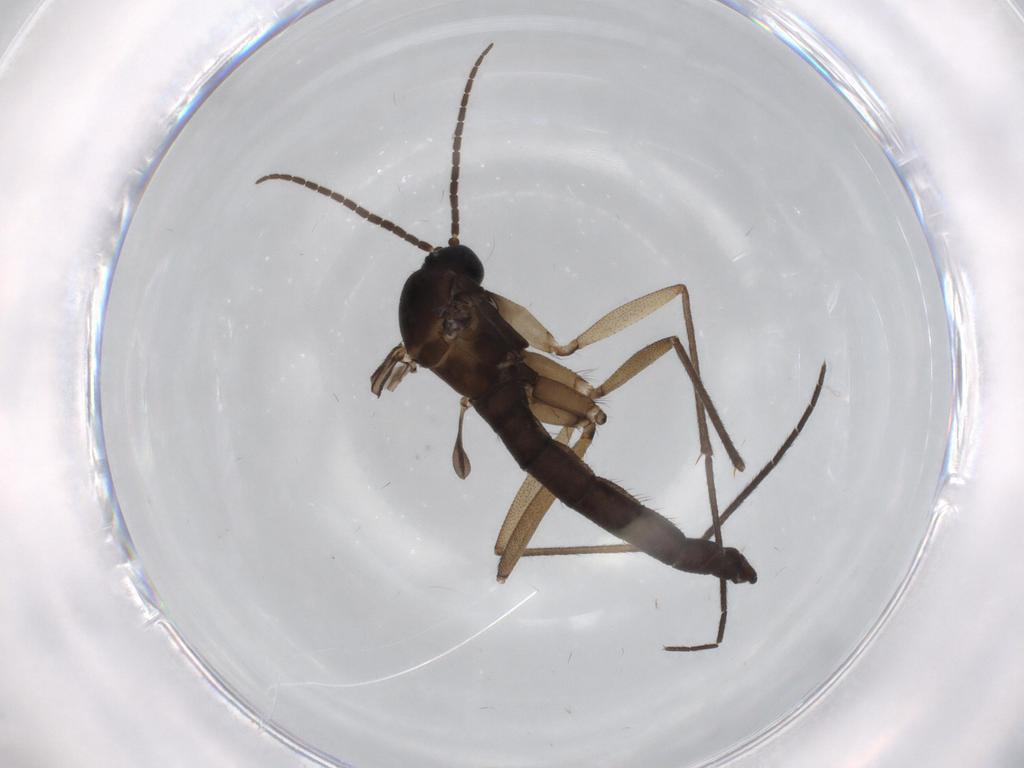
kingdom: Animalia
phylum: Arthropoda
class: Insecta
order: Diptera
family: Cecidomyiidae
